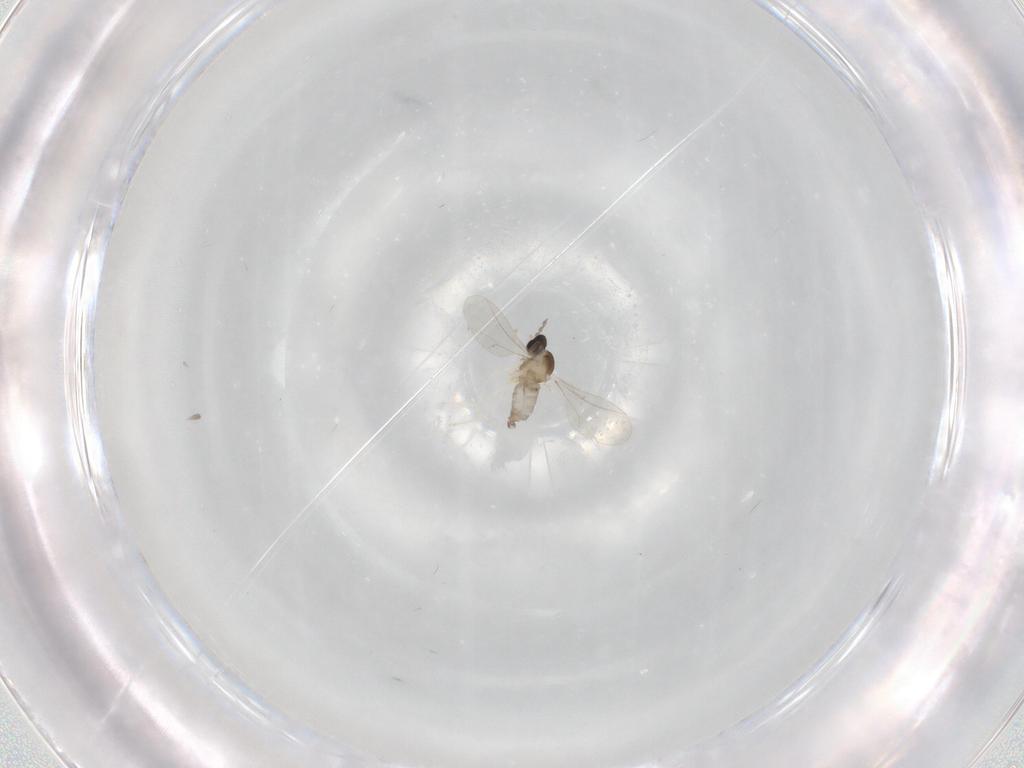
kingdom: Animalia
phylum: Arthropoda
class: Insecta
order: Diptera
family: Cecidomyiidae
